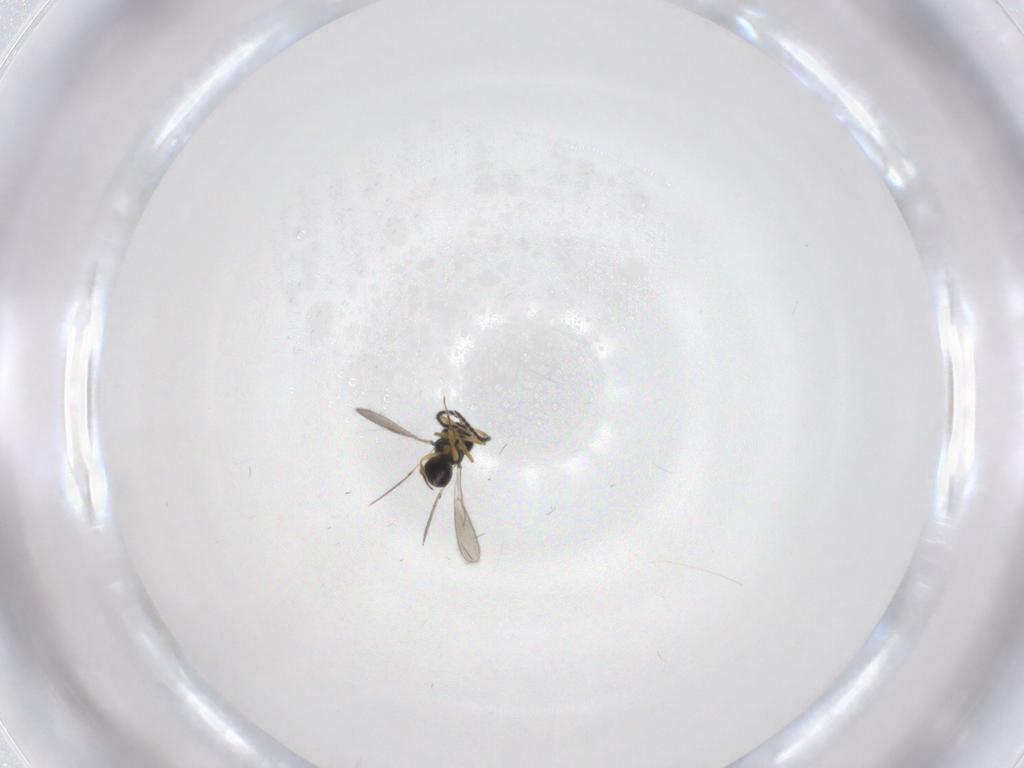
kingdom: Animalia
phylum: Arthropoda
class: Insecta
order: Hymenoptera
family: Scelionidae
